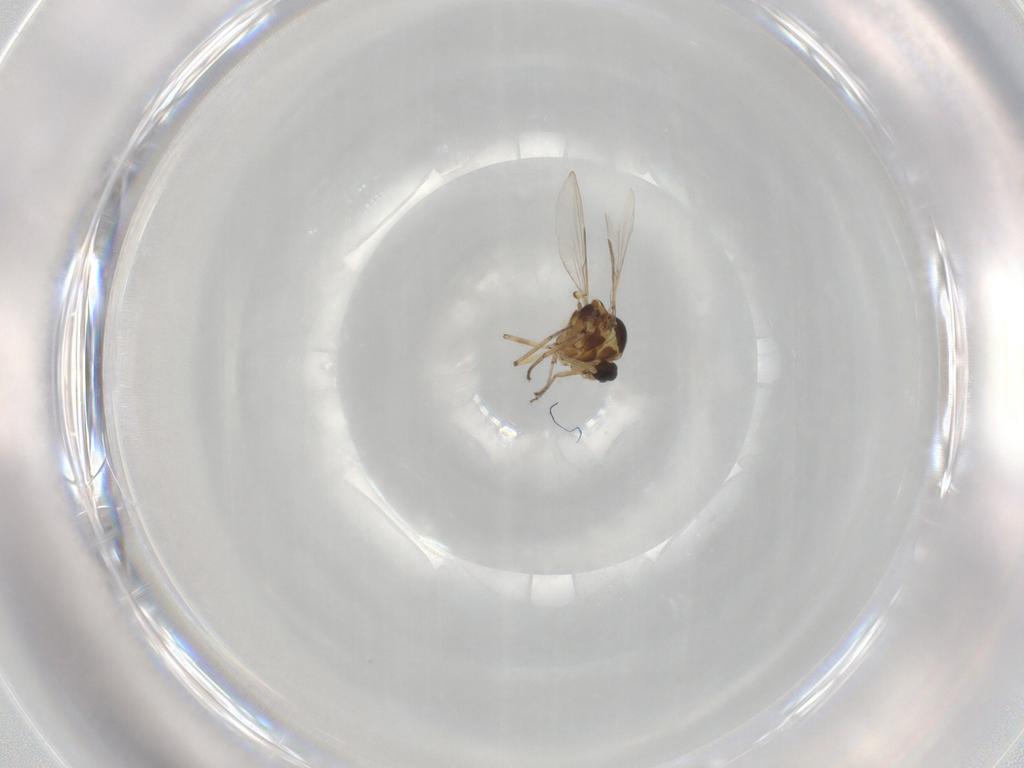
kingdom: Animalia
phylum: Arthropoda
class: Insecta
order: Diptera
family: Ceratopogonidae
